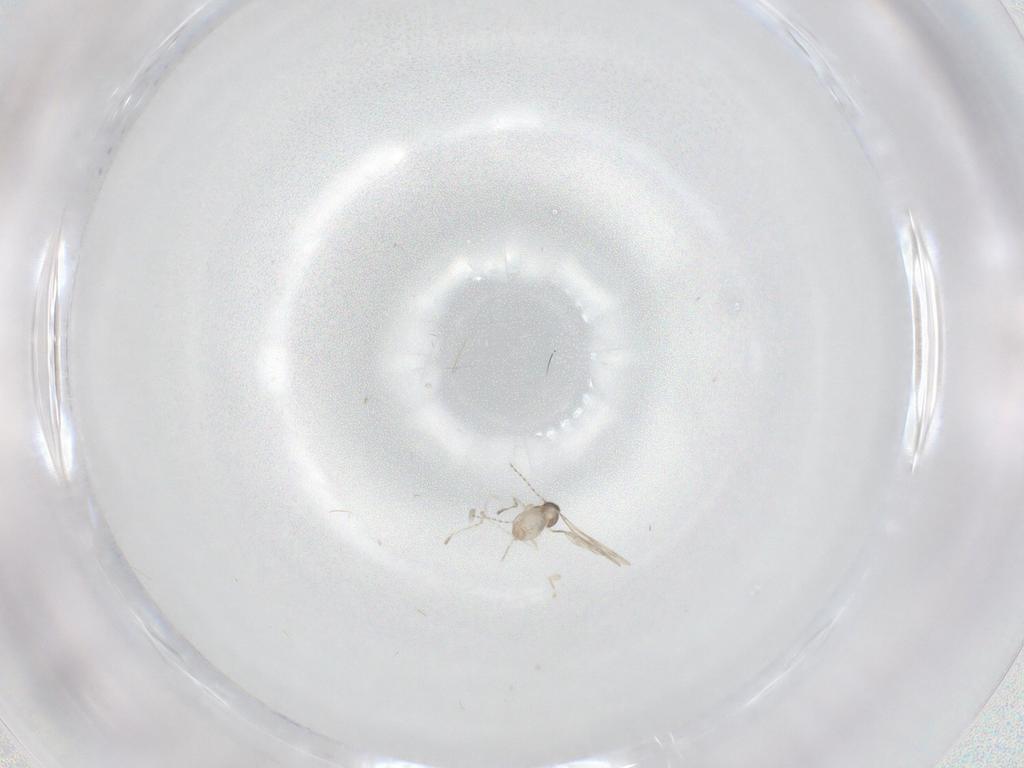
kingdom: Animalia
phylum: Arthropoda
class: Insecta
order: Diptera
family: Cecidomyiidae
